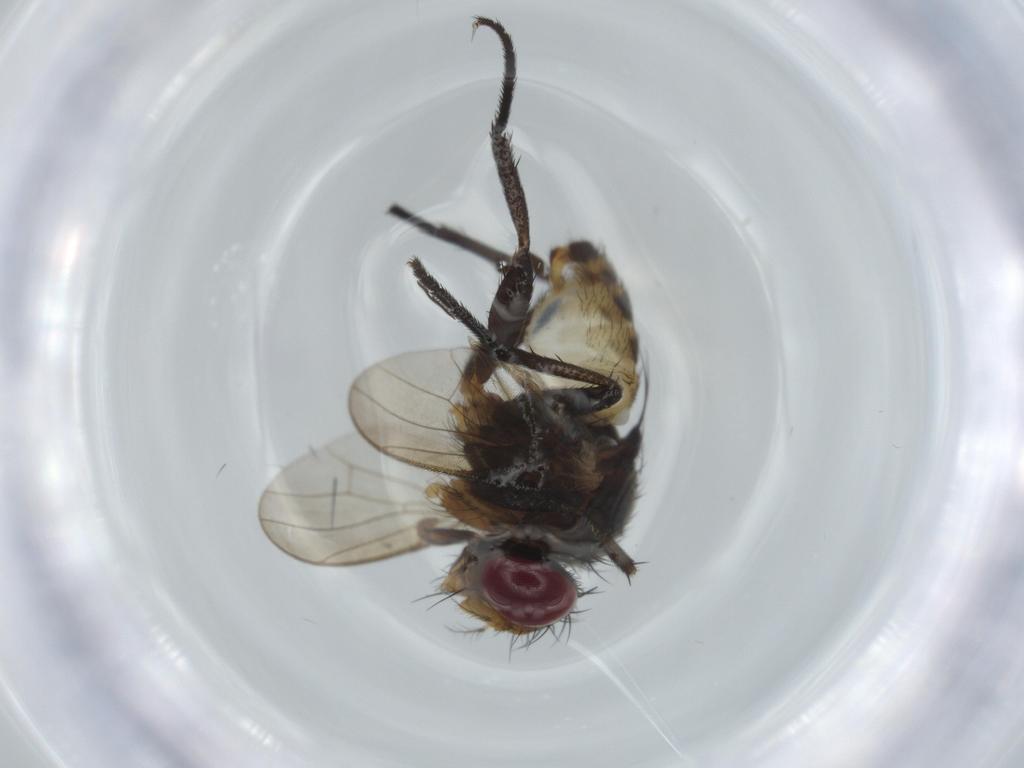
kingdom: Animalia
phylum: Arthropoda
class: Insecta
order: Diptera
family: Anthomyiidae
